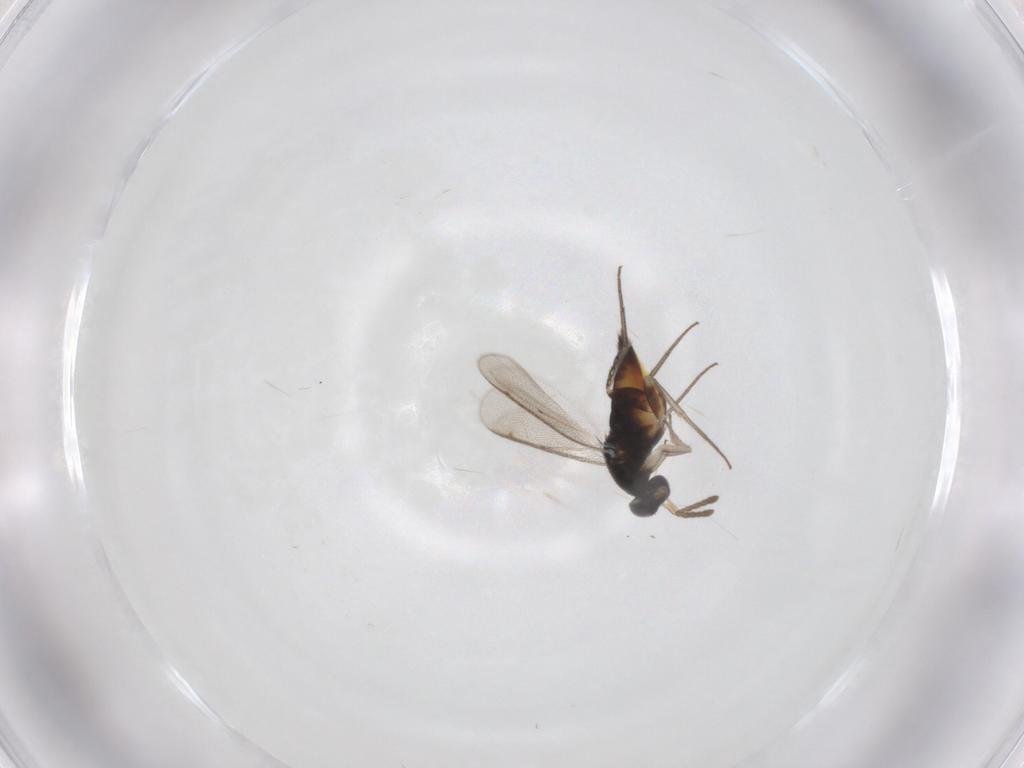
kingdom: Animalia
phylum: Arthropoda
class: Insecta
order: Hymenoptera
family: Eulophidae
